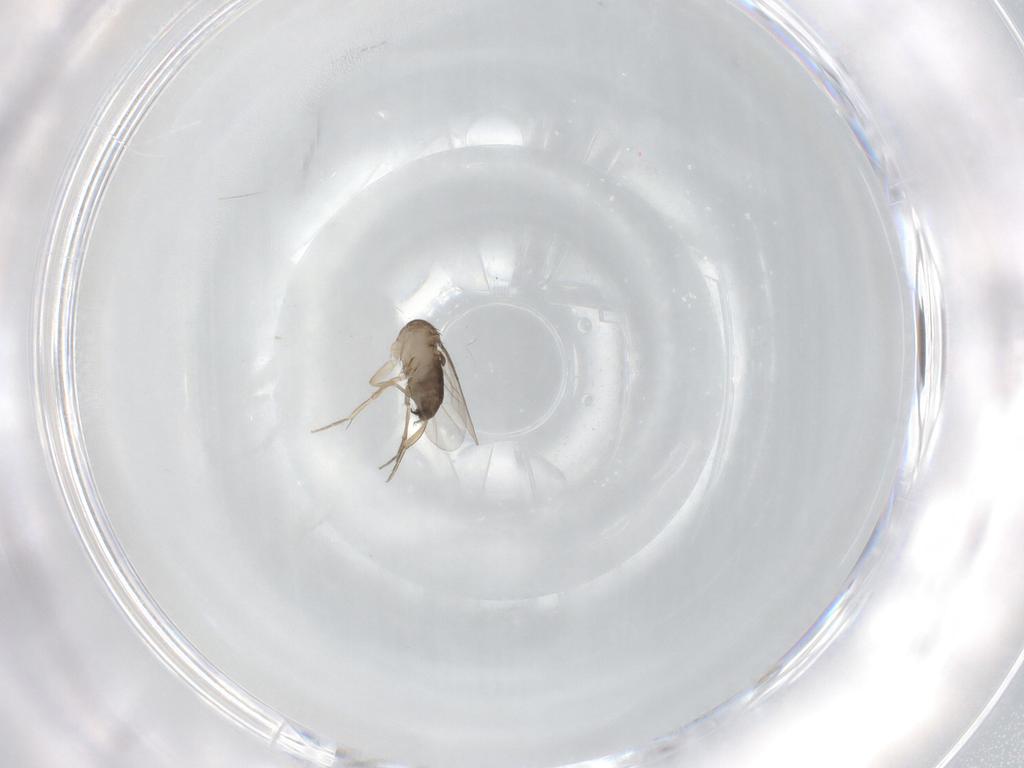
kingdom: Animalia
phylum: Arthropoda
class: Insecta
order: Diptera
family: Phoridae
